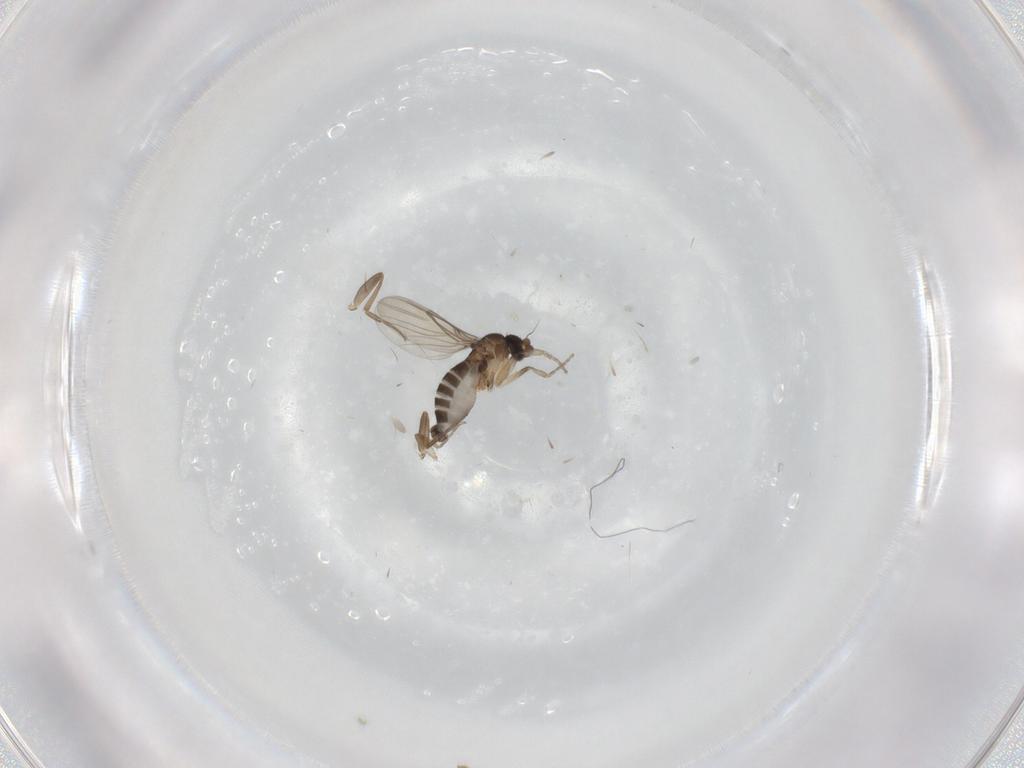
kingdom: Animalia
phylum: Arthropoda
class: Insecta
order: Diptera
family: Phoridae
